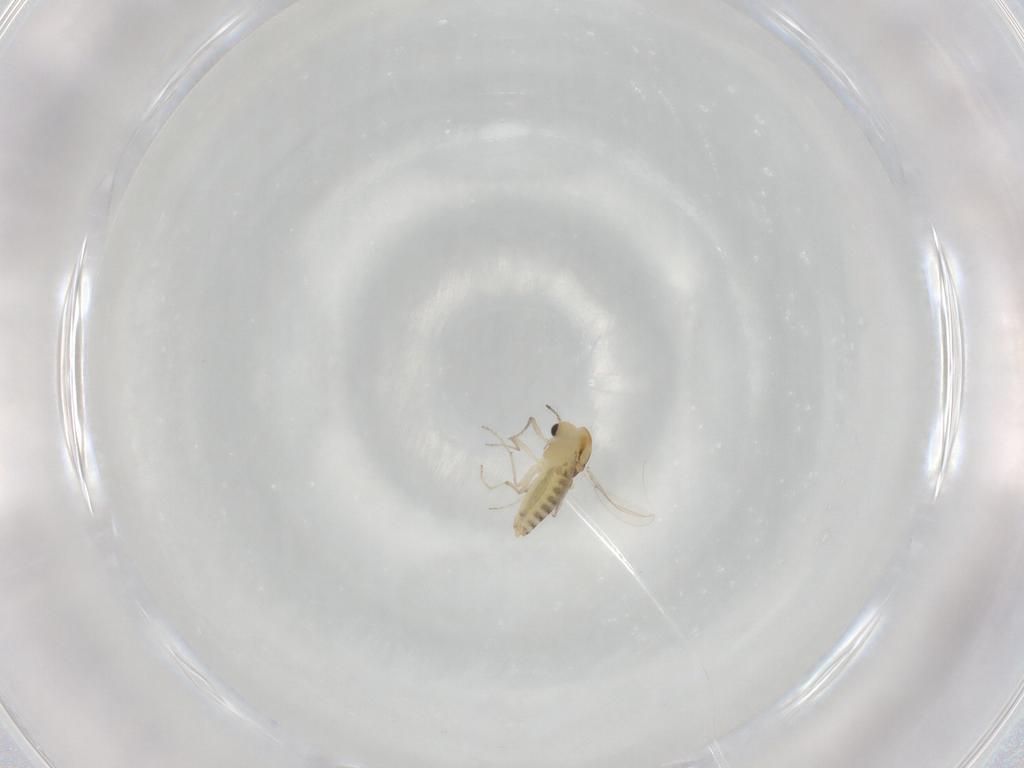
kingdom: Animalia
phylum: Arthropoda
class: Insecta
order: Diptera
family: Chironomidae
